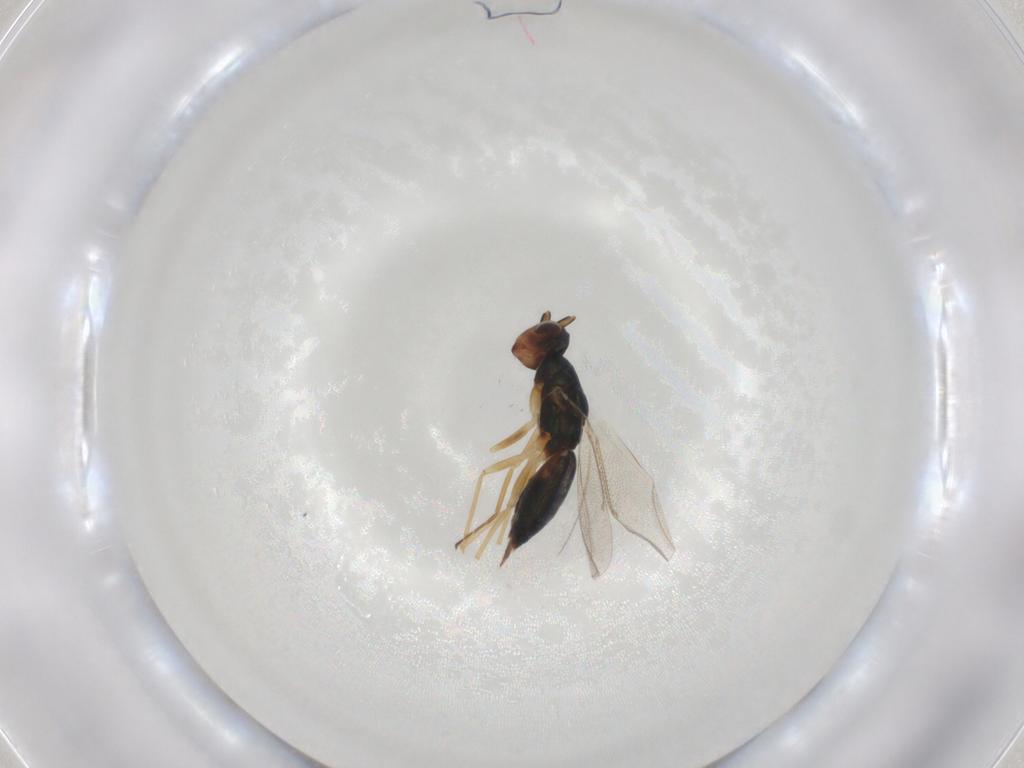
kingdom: Animalia
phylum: Arthropoda
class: Insecta
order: Hymenoptera
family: Eulophidae
